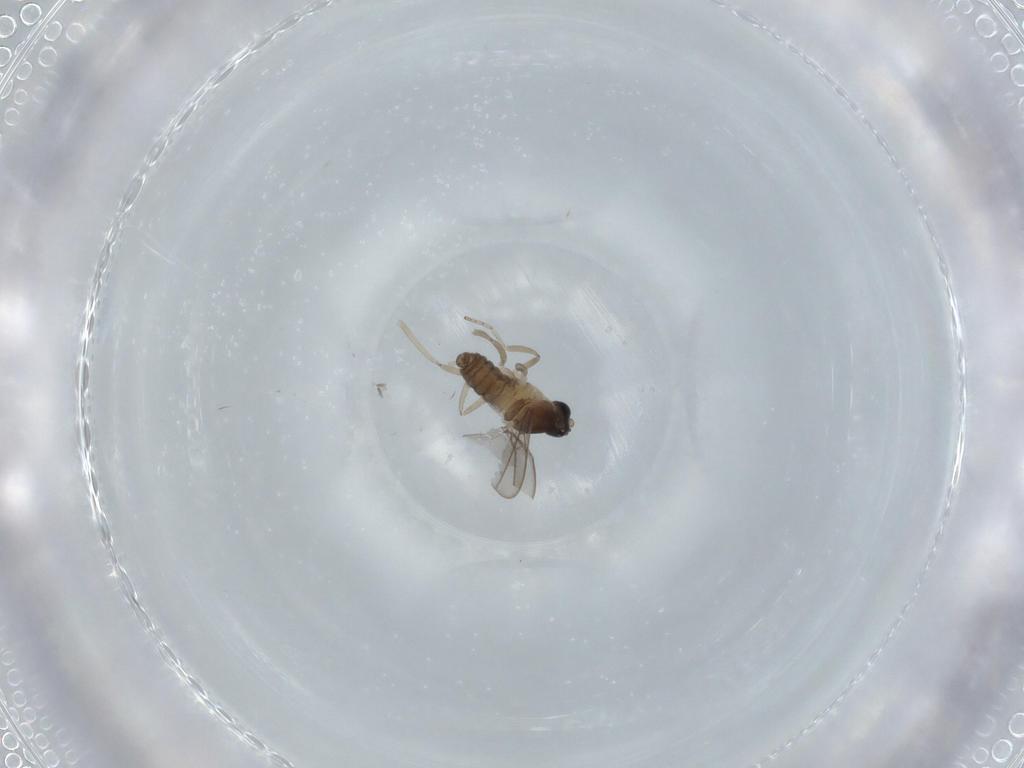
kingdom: Animalia
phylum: Arthropoda
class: Insecta
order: Diptera
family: Cecidomyiidae
